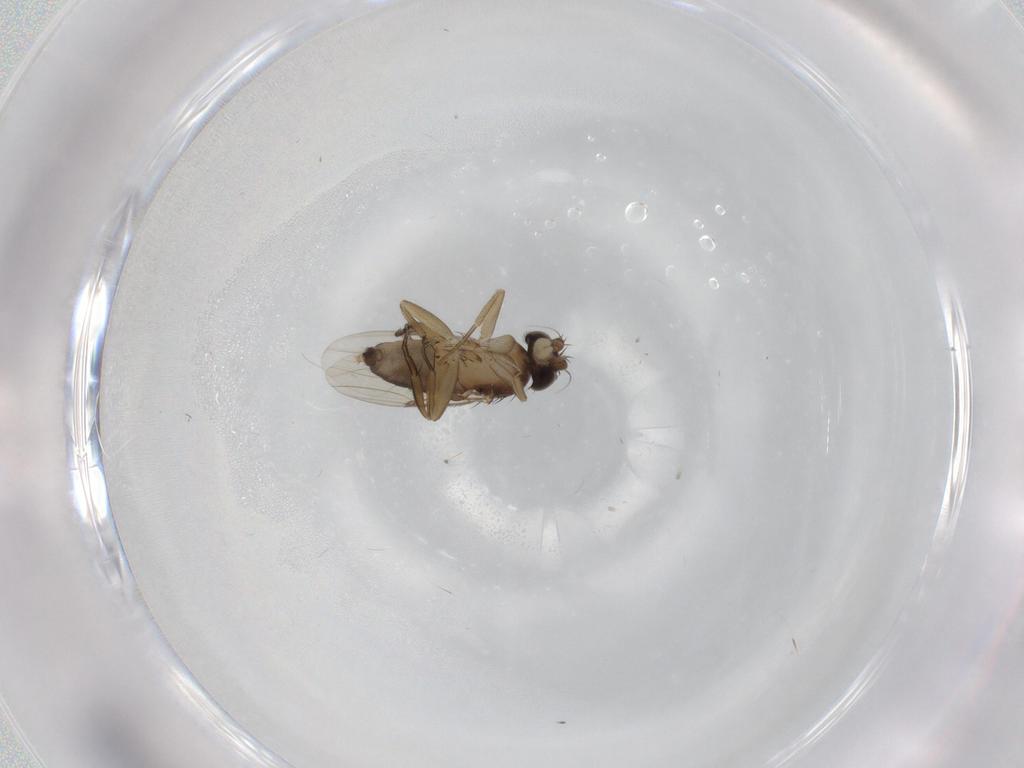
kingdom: Animalia
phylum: Arthropoda
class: Insecta
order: Diptera
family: Phoridae
